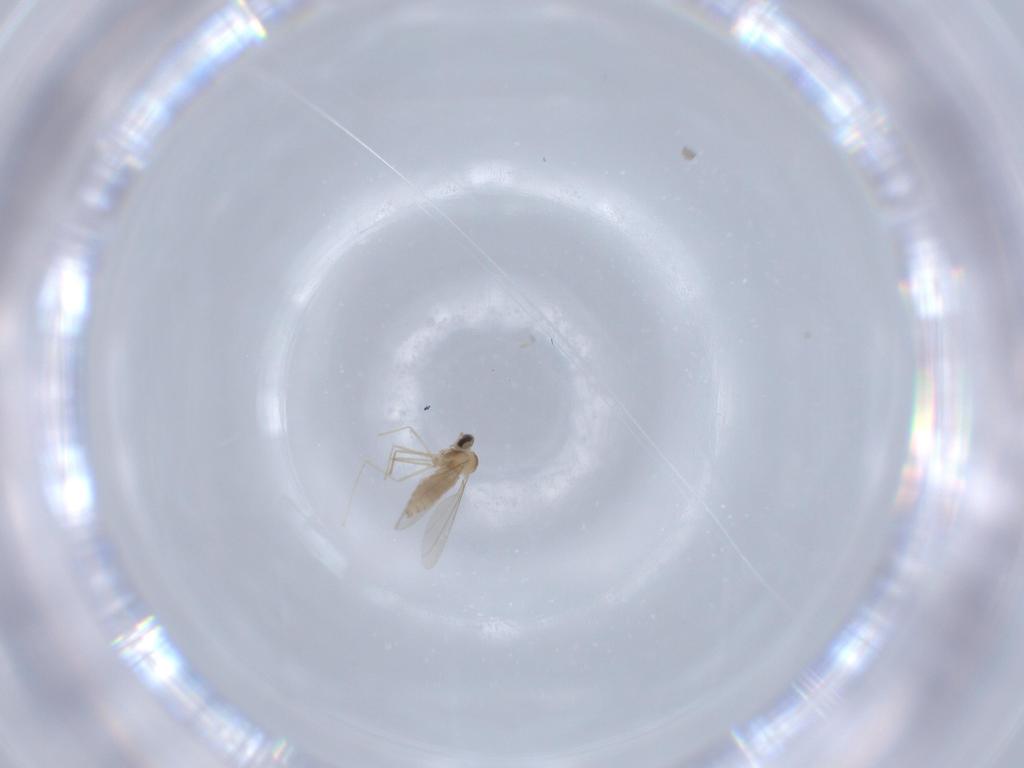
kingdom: Animalia
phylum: Arthropoda
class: Insecta
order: Diptera
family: Cecidomyiidae
